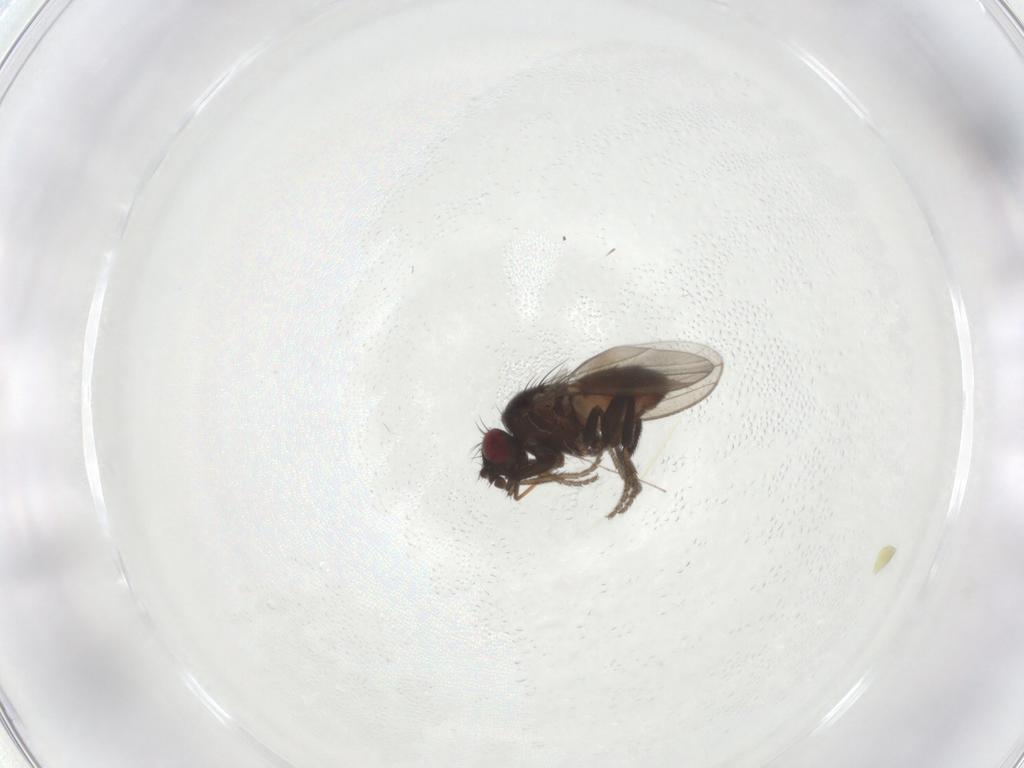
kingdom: Animalia
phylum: Arthropoda
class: Insecta
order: Diptera
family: Milichiidae
